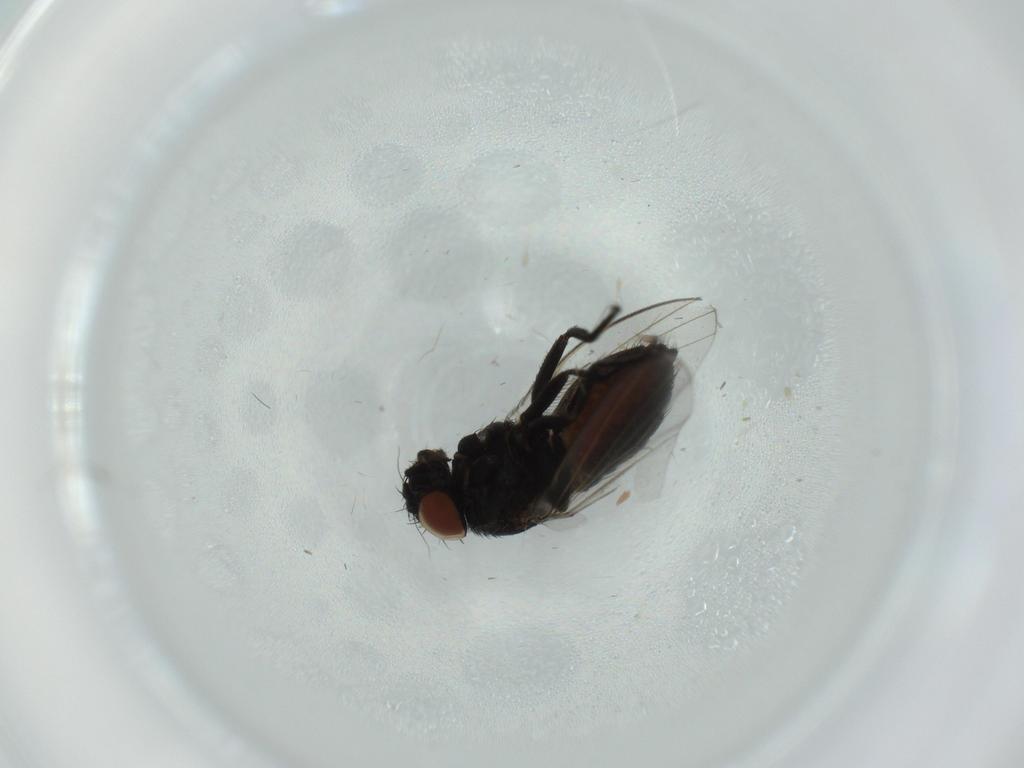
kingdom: Animalia
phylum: Arthropoda
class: Insecta
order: Diptera
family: Milichiidae
